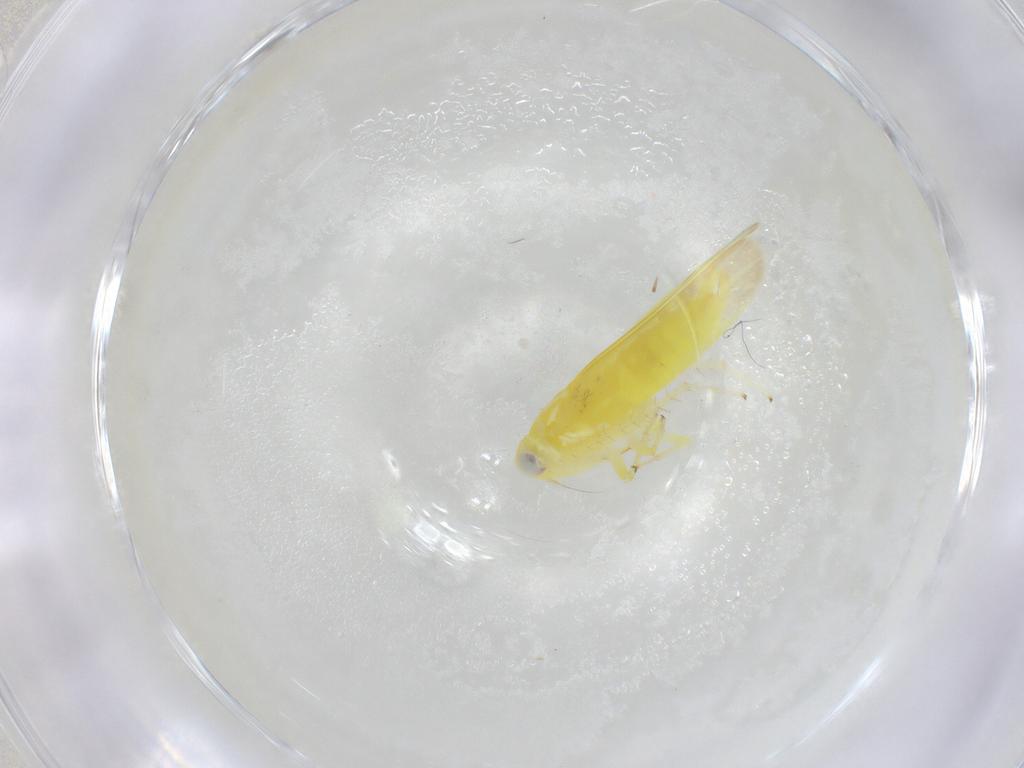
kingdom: Animalia
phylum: Arthropoda
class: Insecta
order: Hemiptera
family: Cicadellidae
